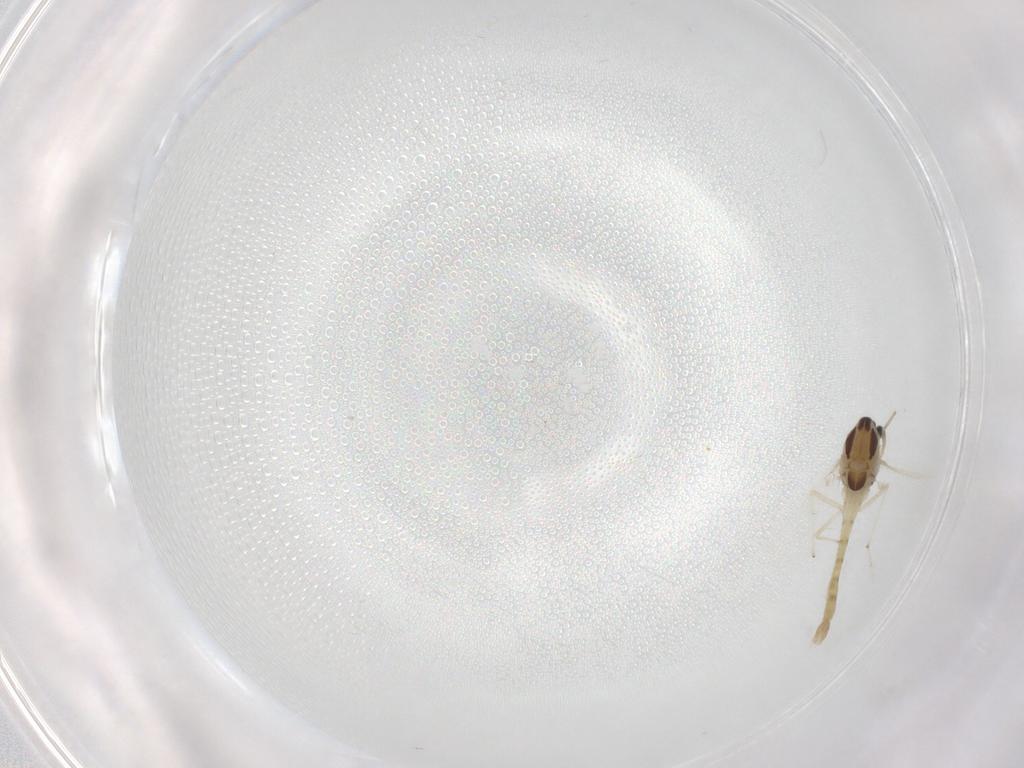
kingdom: Animalia
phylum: Arthropoda
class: Insecta
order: Diptera
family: Chironomidae
